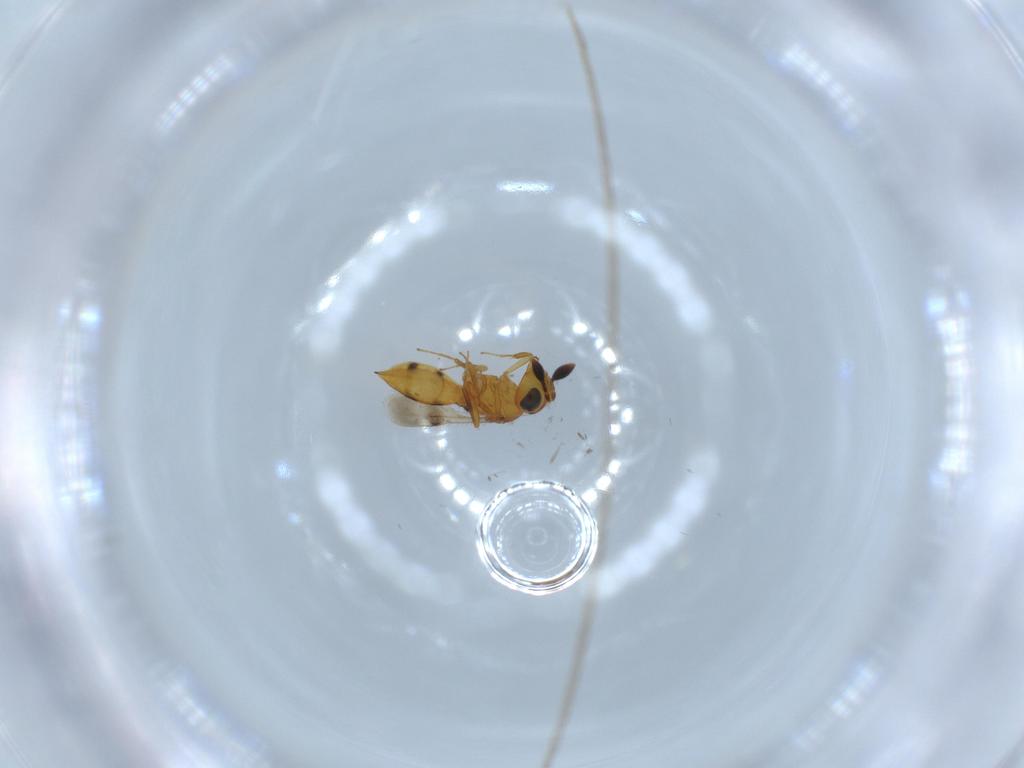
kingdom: Animalia
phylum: Arthropoda
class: Insecta
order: Hymenoptera
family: Scelionidae
